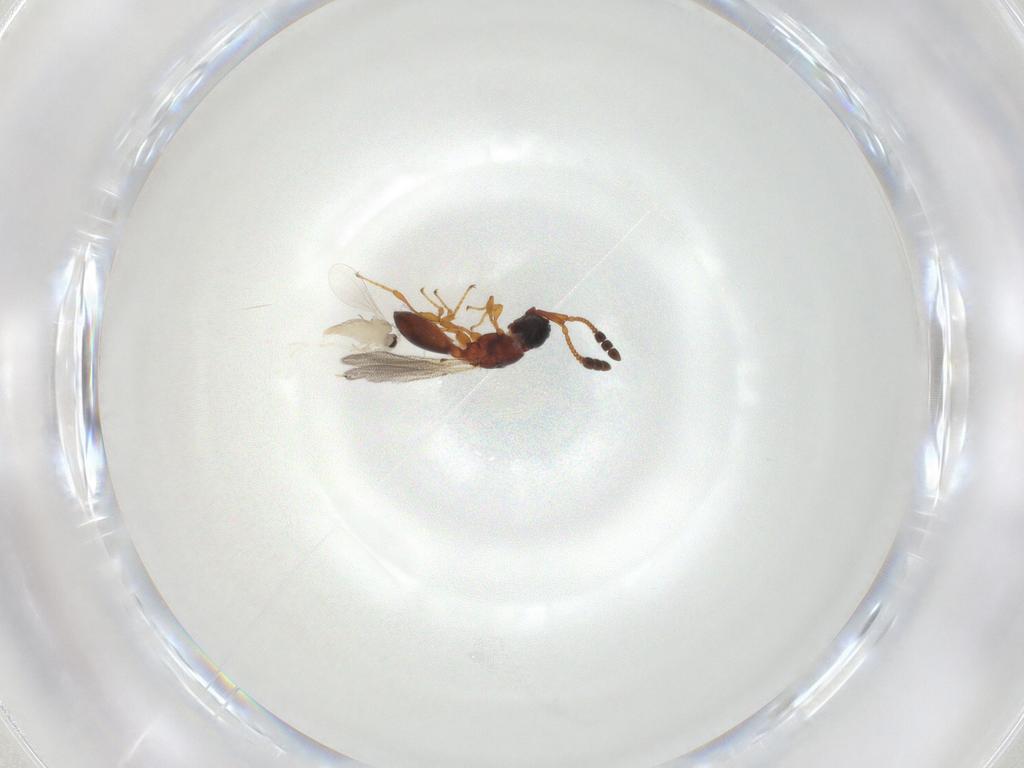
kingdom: Animalia
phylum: Arthropoda
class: Insecta
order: Diptera
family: Cecidomyiidae
